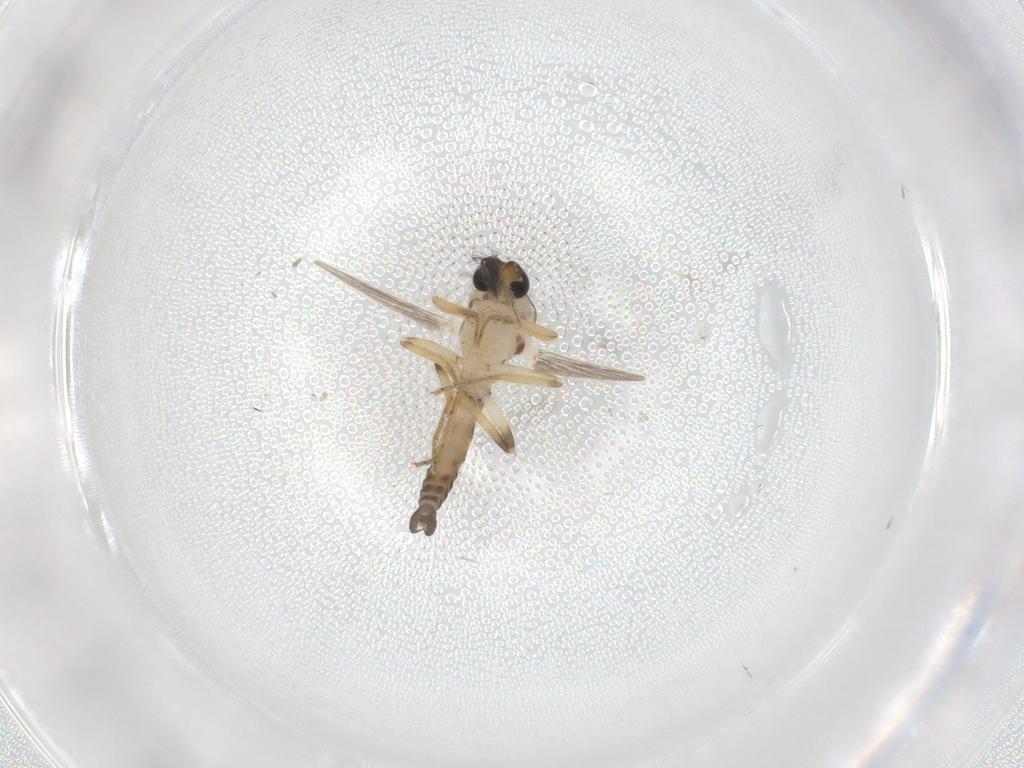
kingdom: Animalia
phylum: Arthropoda
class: Insecta
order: Diptera
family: Ceratopogonidae
